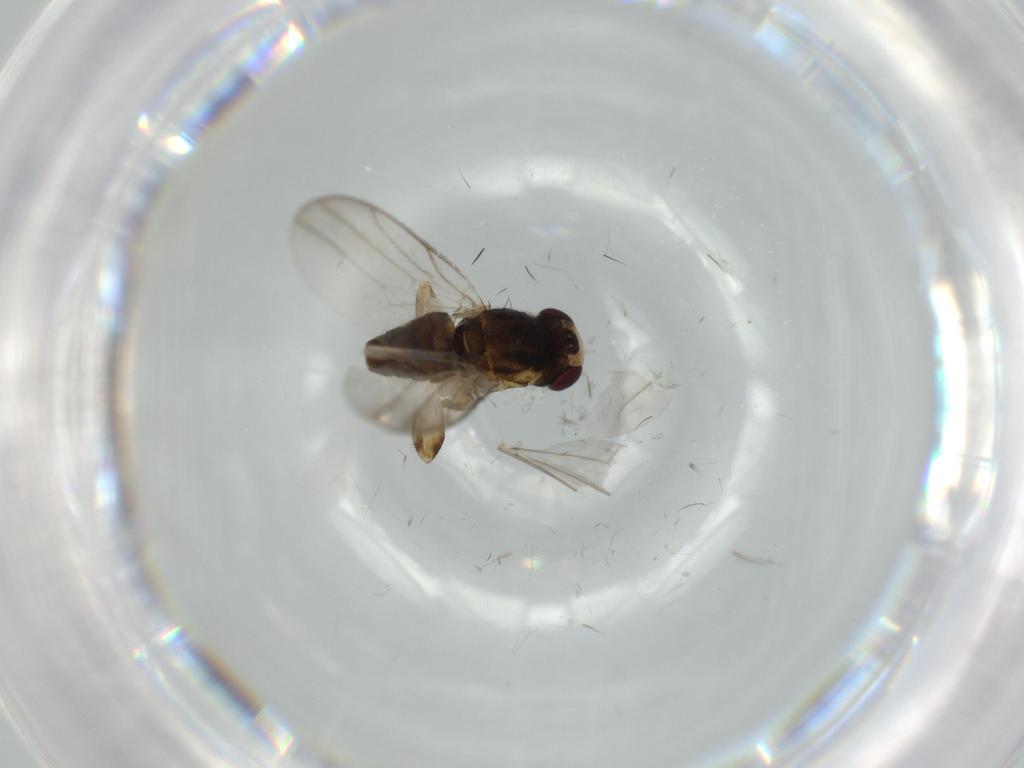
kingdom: Animalia
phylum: Arthropoda
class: Insecta
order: Diptera
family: Chloropidae
